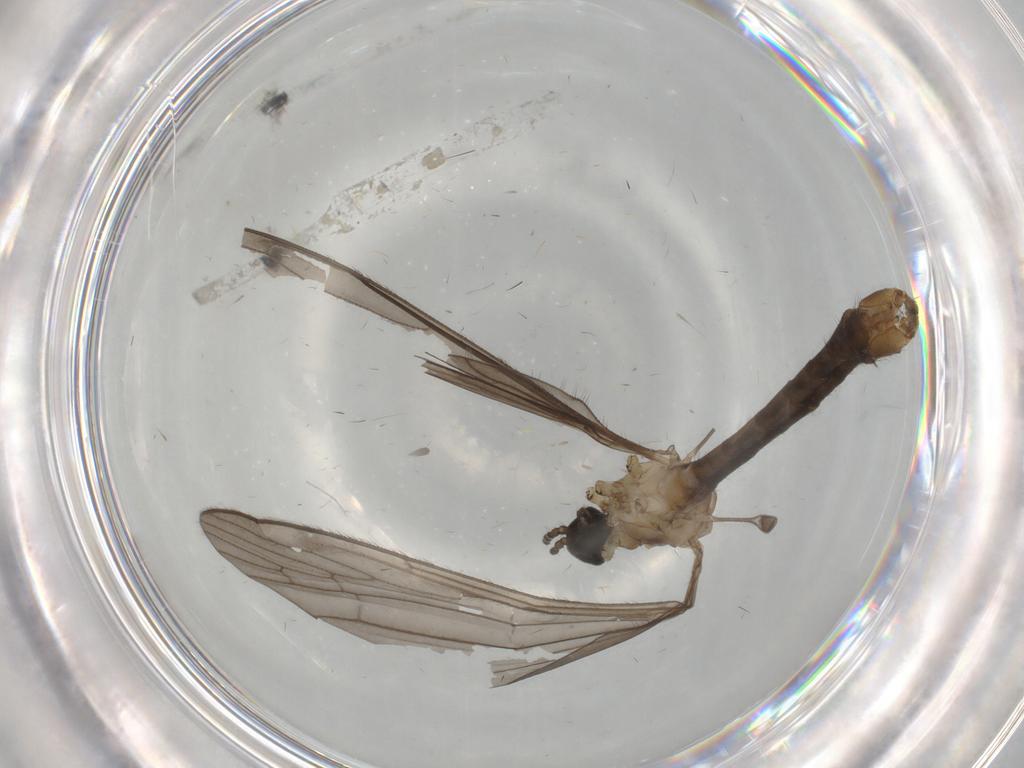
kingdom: Animalia
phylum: Arthropoda
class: Insecta
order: Diptera
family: Sciaridae
